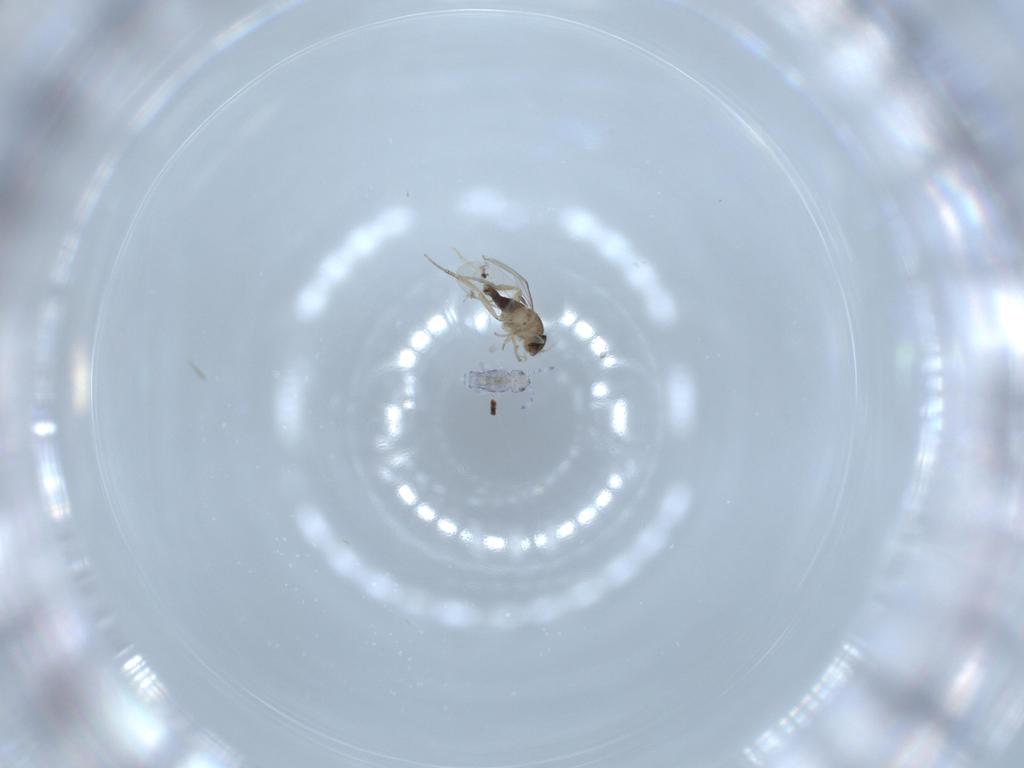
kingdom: Animalia
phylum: Arthropoda
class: Collembola
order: Entomobryomorpha
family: Entomobryidae
